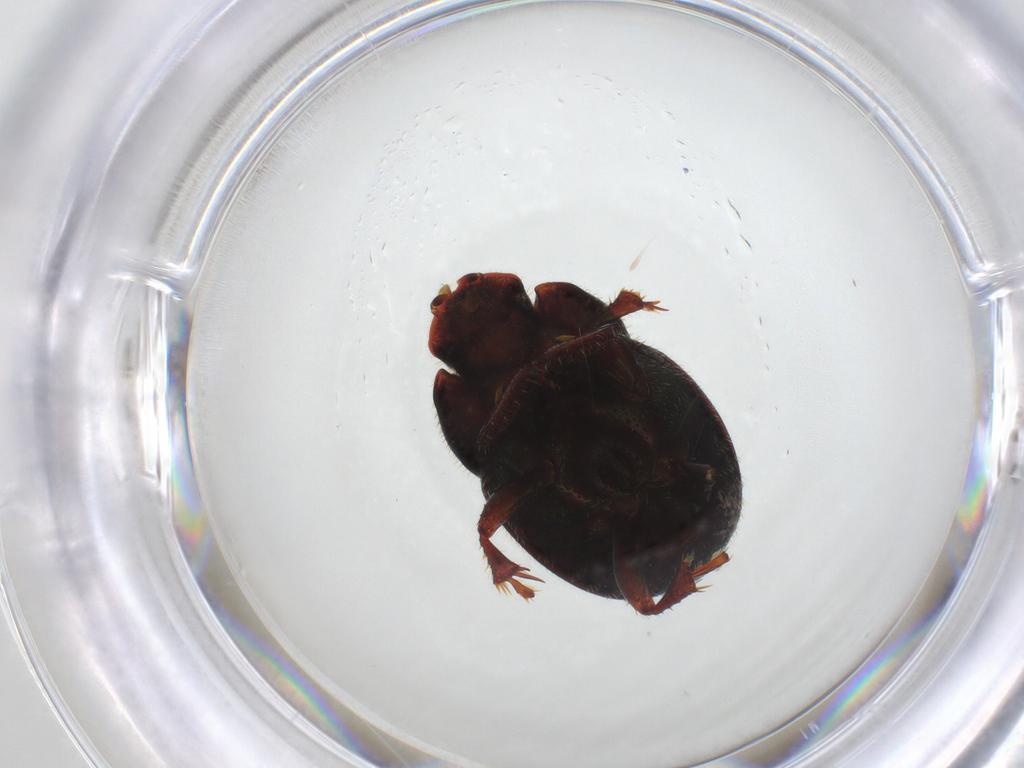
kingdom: Animalia
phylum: Arthropoda
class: Insecta
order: Coleoptera
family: Scarabaeidae
